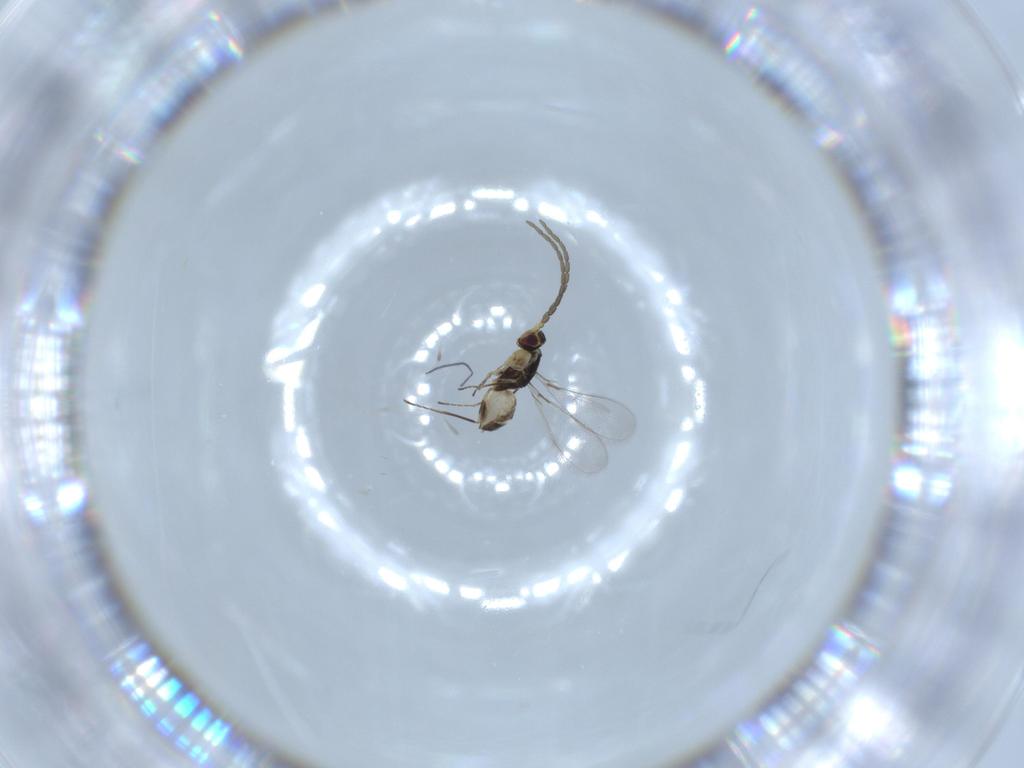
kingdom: Animalia
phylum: Arthropoda
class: Insecta
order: Hymenoptera
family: Mymaridae
